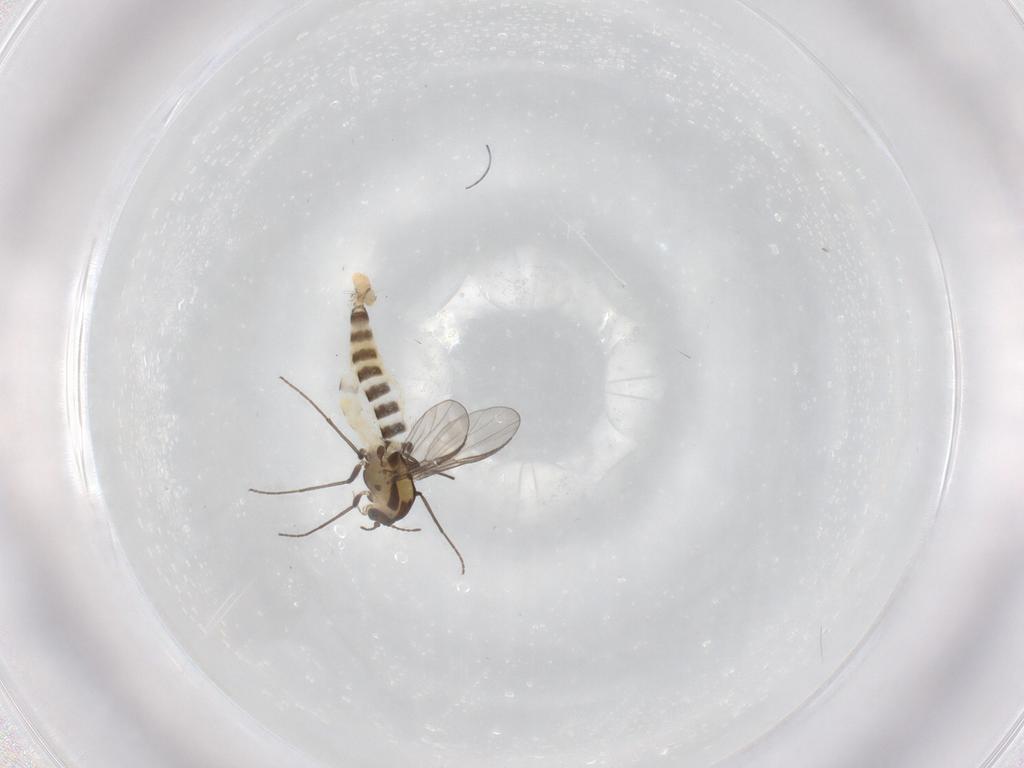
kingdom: Animalia
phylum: Arthropoda
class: Insecta
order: Diptera
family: Chironomidae
